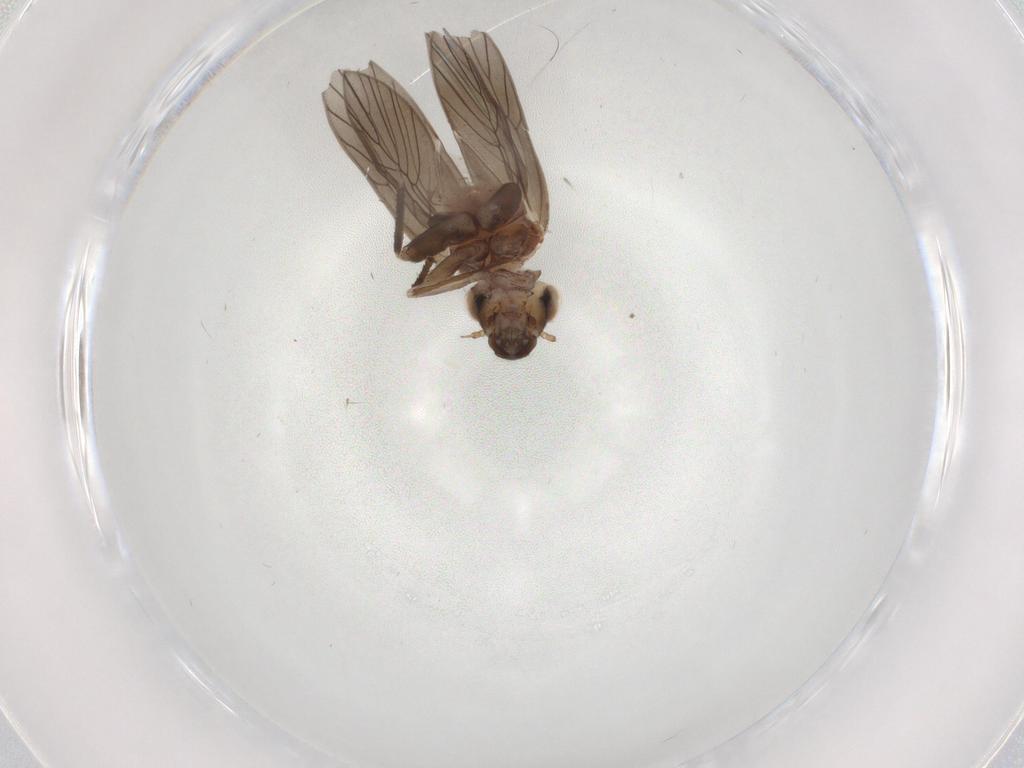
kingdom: Animalia
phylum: Arthropoda
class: Insecta
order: Psocodea
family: Lepidopsocidae
